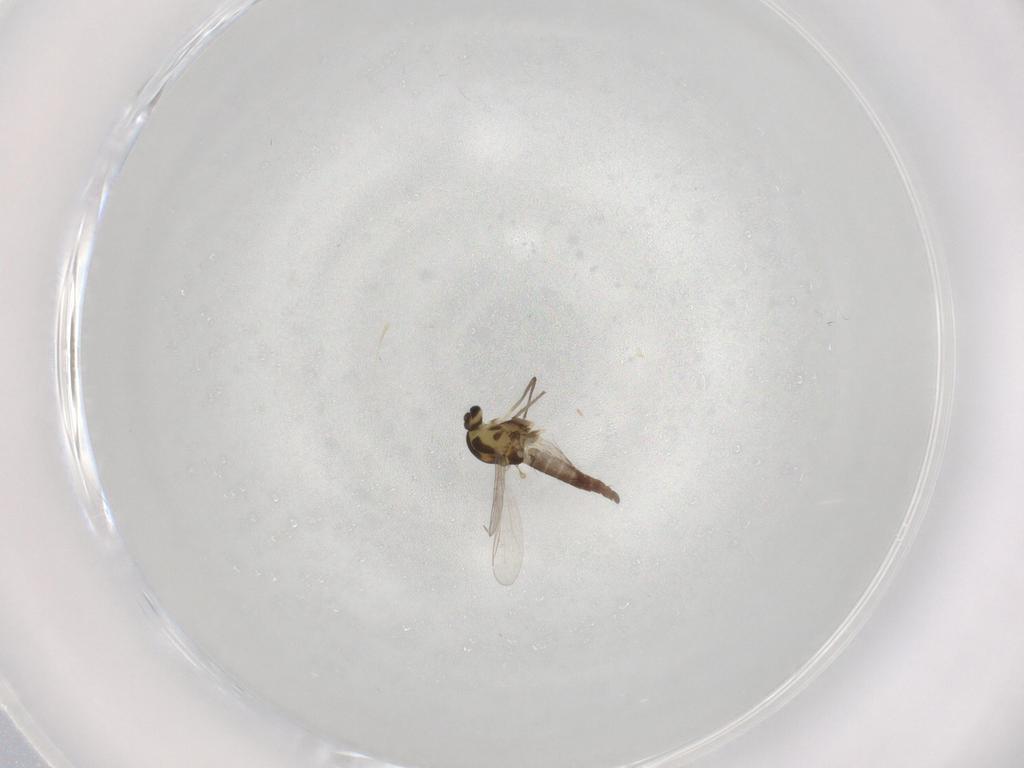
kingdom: Animalia
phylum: Arthropoda
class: Insecta
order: Diptera
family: Chironomidae
